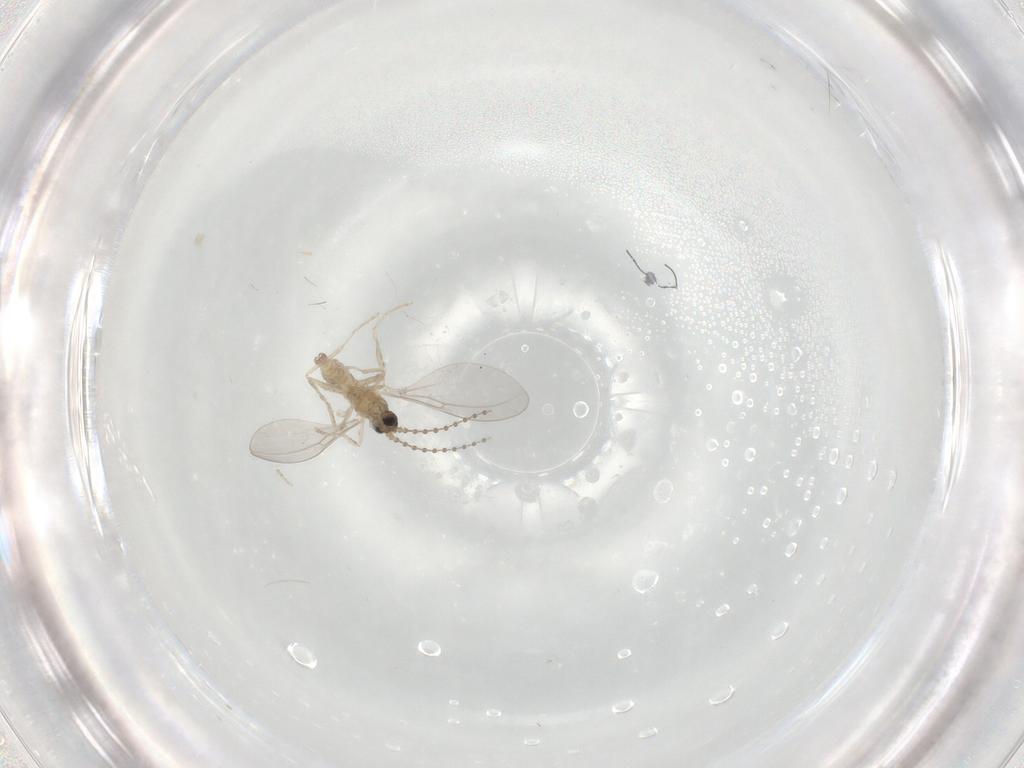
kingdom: Animalia
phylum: Arthropoda
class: Insecta
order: Diptera
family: Cecidomyiidae
